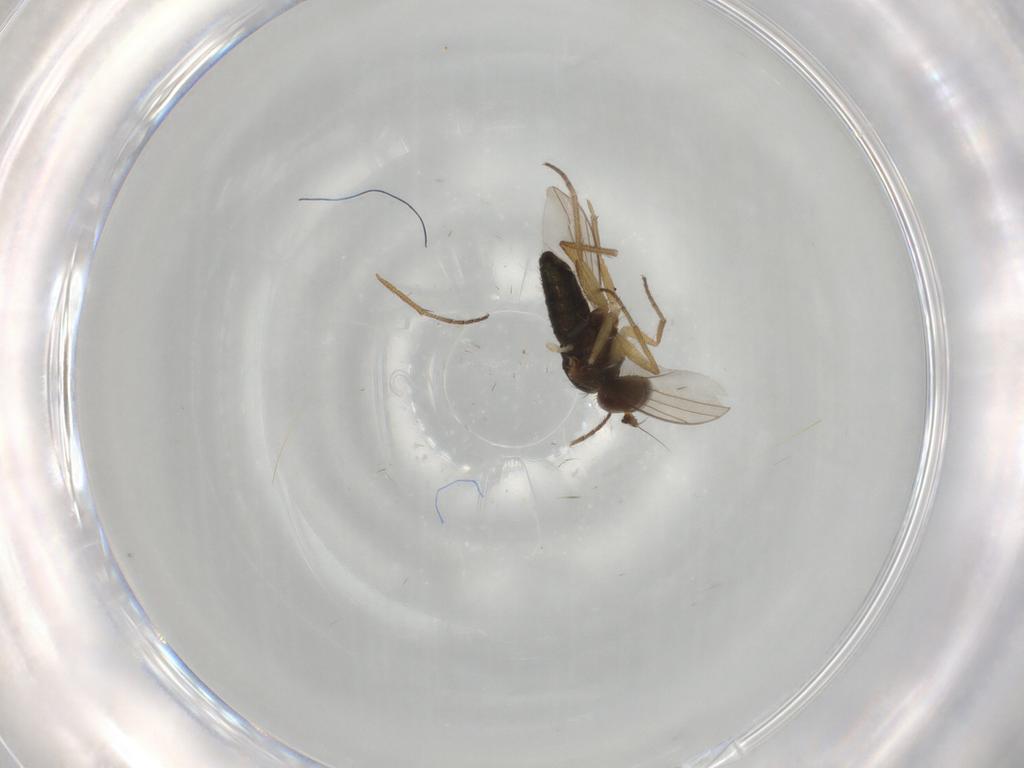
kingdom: Animalia
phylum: Arthropoda
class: Insecta
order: Diptera
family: Dolichopodidae
